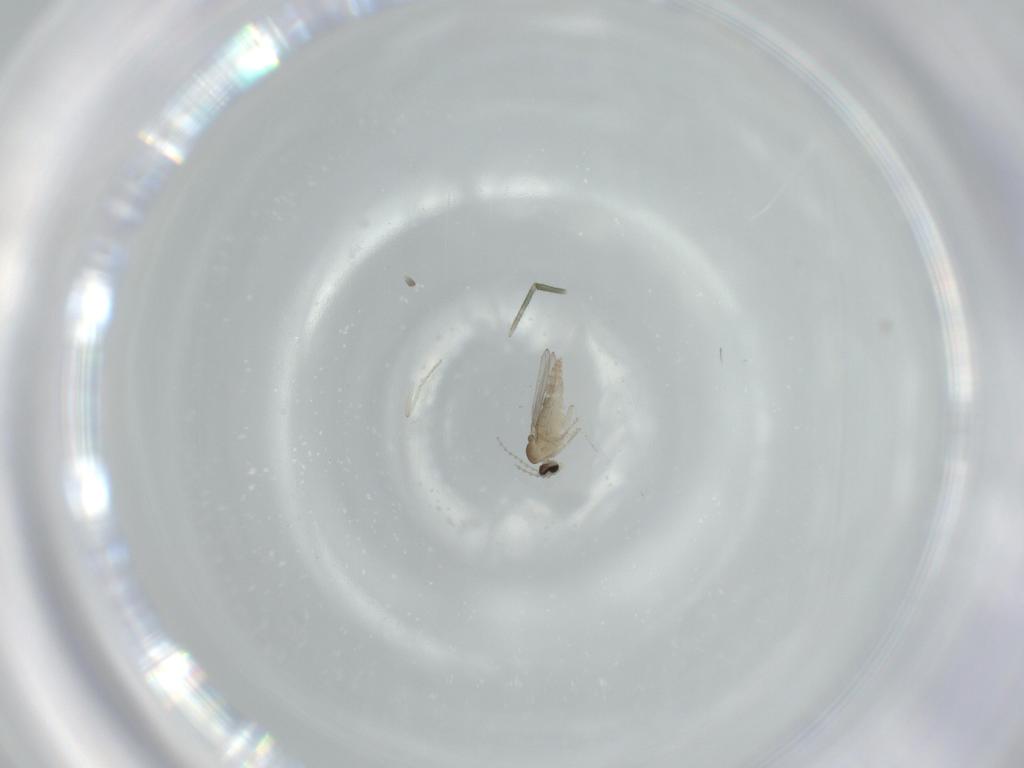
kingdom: Animalia
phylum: Arthropoda
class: Insecta
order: Diptera
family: Cecidomyiidae
